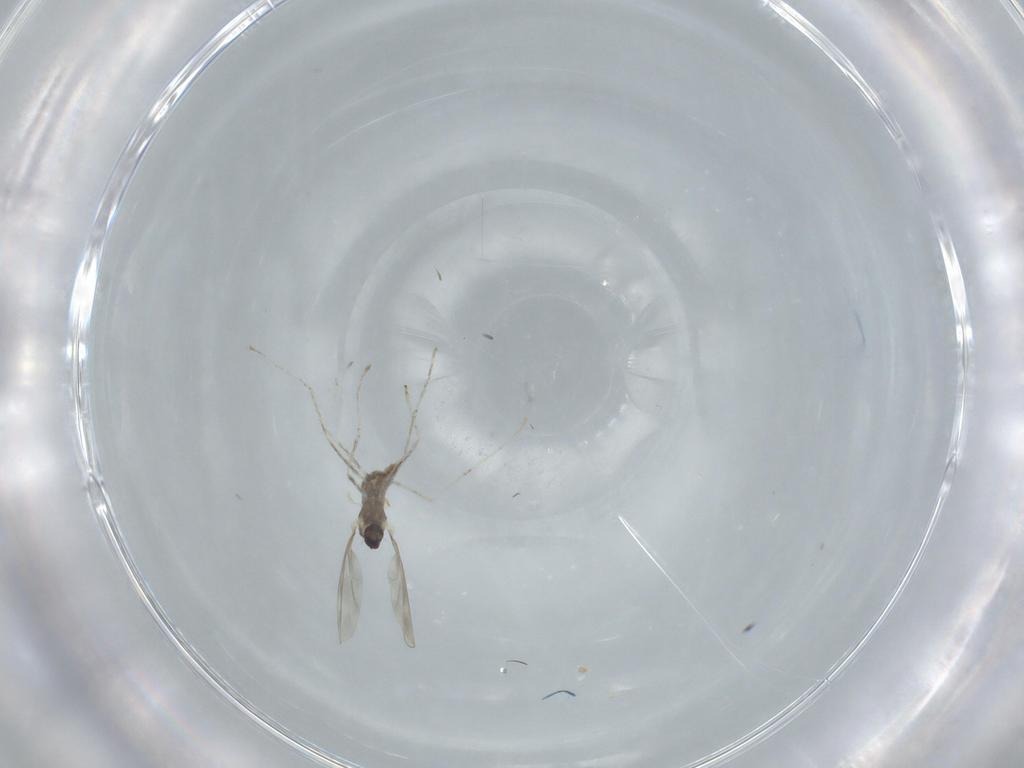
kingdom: Animalia
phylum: Arthropoda
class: Insecta
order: Diptera
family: Cecidomyiidae
